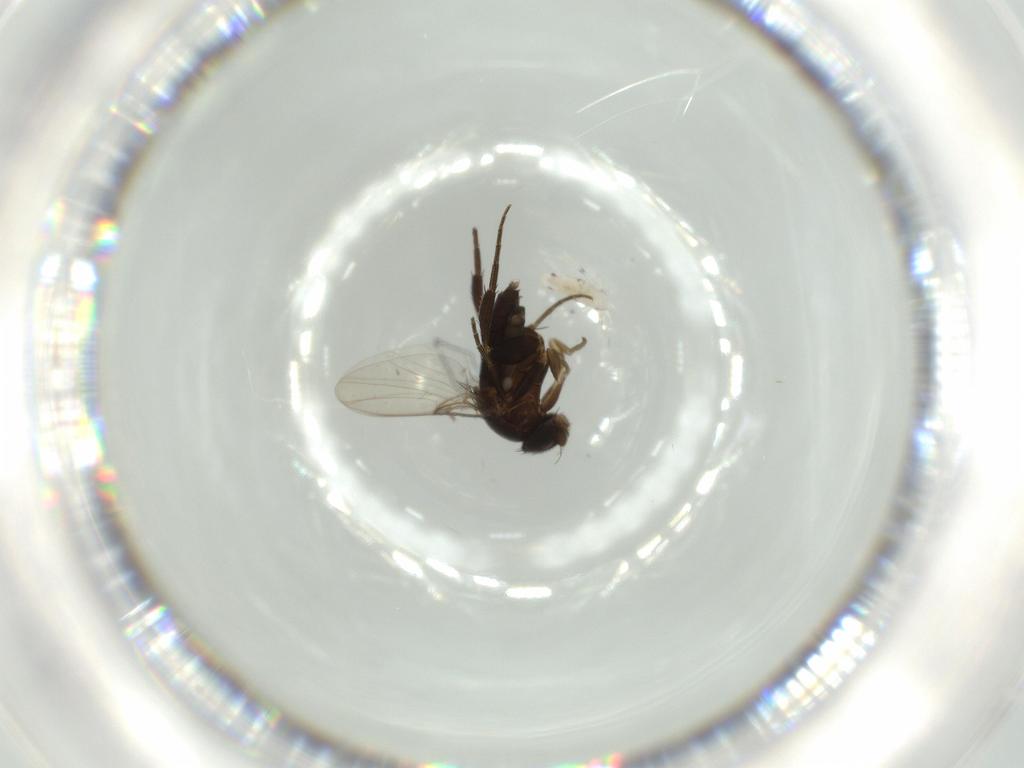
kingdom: Animalia
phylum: Arthropoda
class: Insecta
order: Diptera
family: Phoridae
